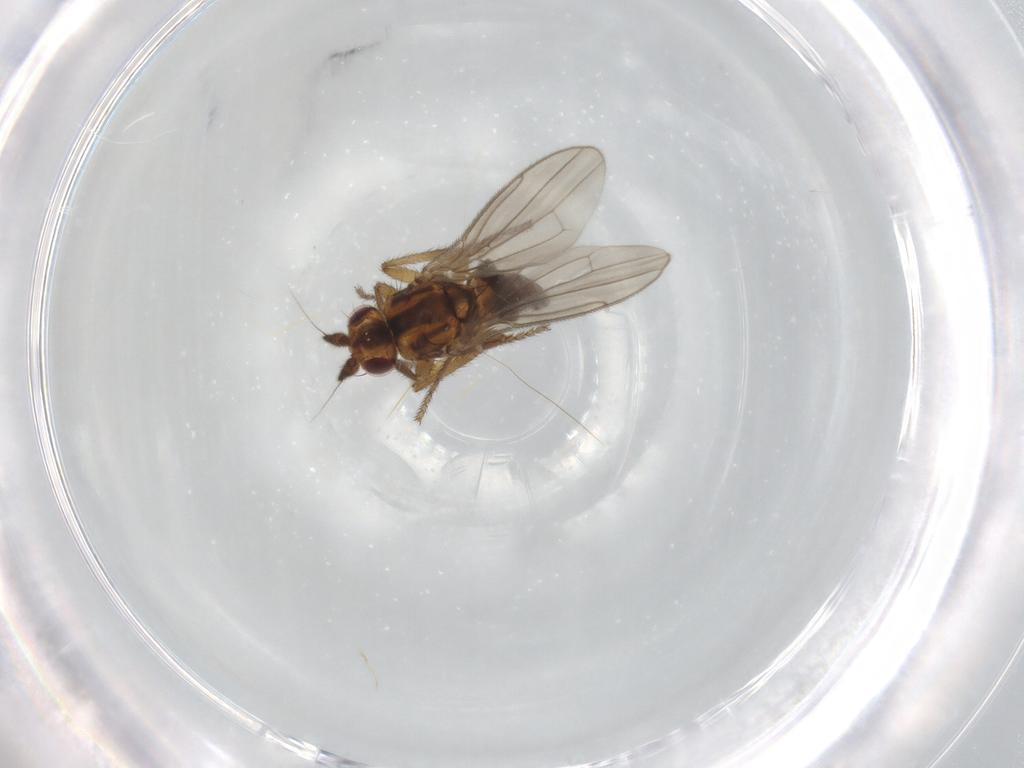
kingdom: Animalia
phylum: Arthropoda
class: Insecta
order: Diptera
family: Sphaeroceridae
